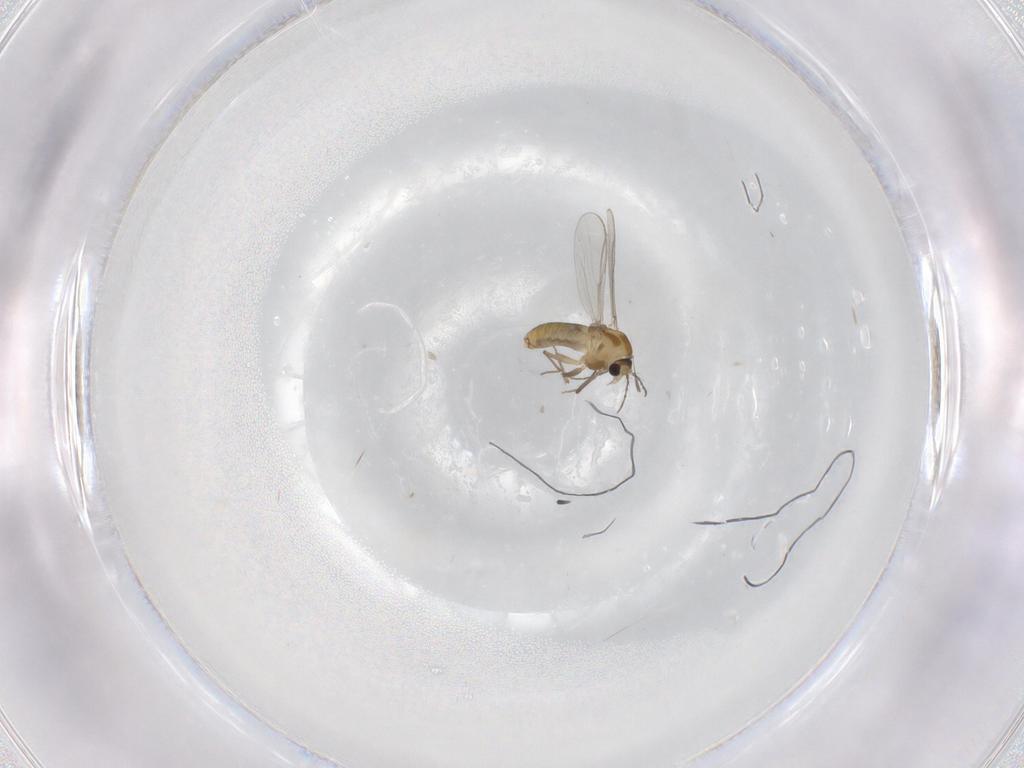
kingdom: Animalia
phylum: Arthropoda
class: Insecta
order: Diptera
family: Chironomidae
